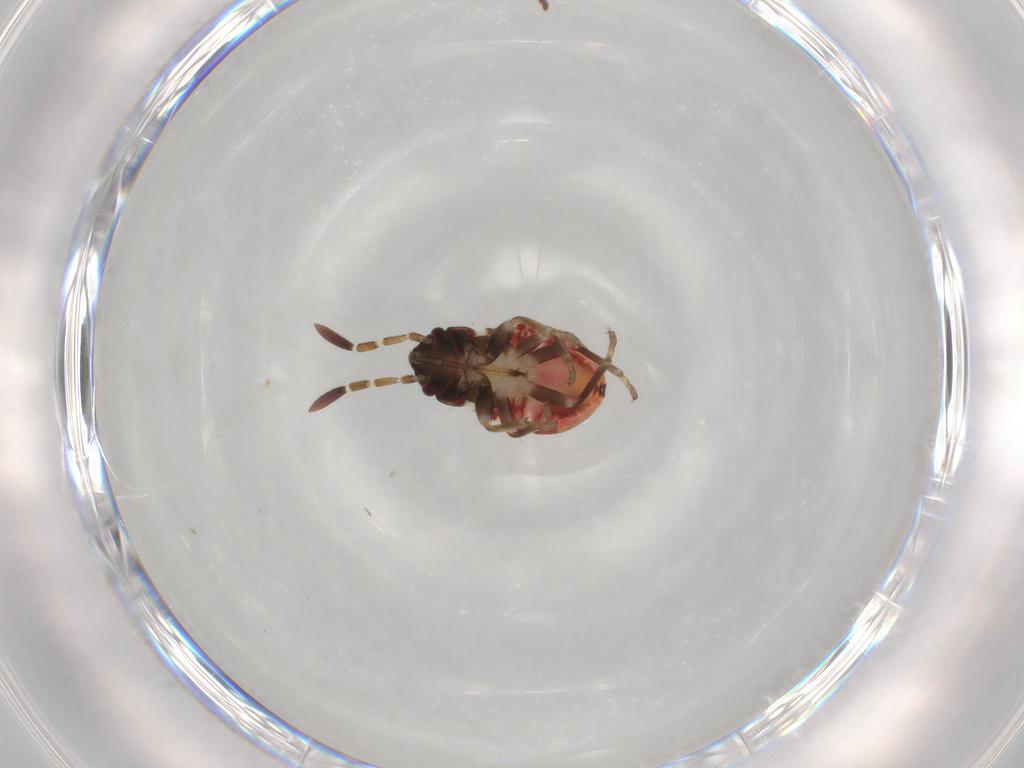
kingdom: Animalia
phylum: Arthropoda
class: Insecta
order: Hemiptera
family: Rhyparochromidae
